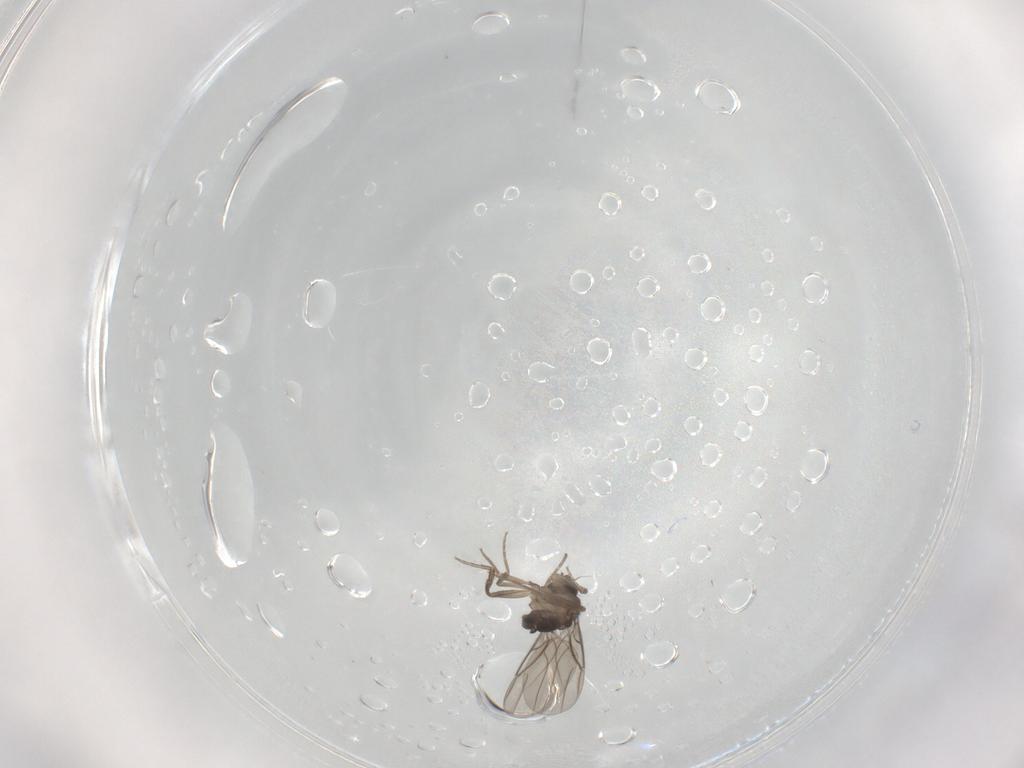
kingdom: Animalia
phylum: Arthropoda
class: Insecta
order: Diptera
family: Phoridae
